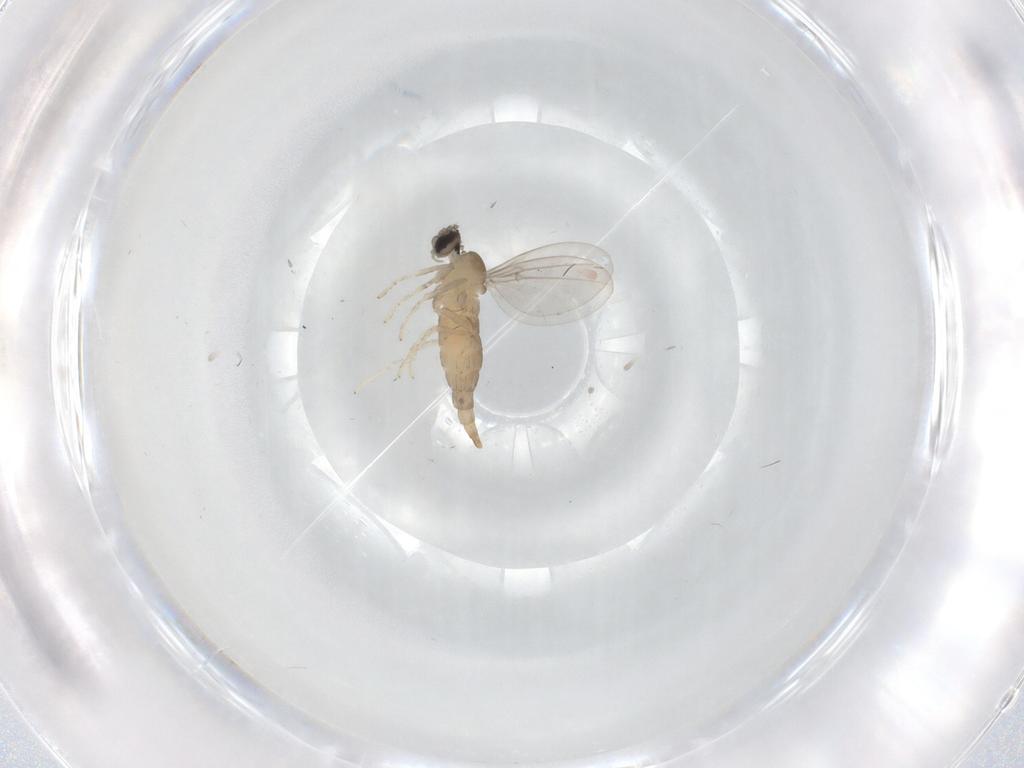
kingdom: Animalia
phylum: Arthropoda
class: Insecta
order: Diptera
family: Cecidomyiidae
